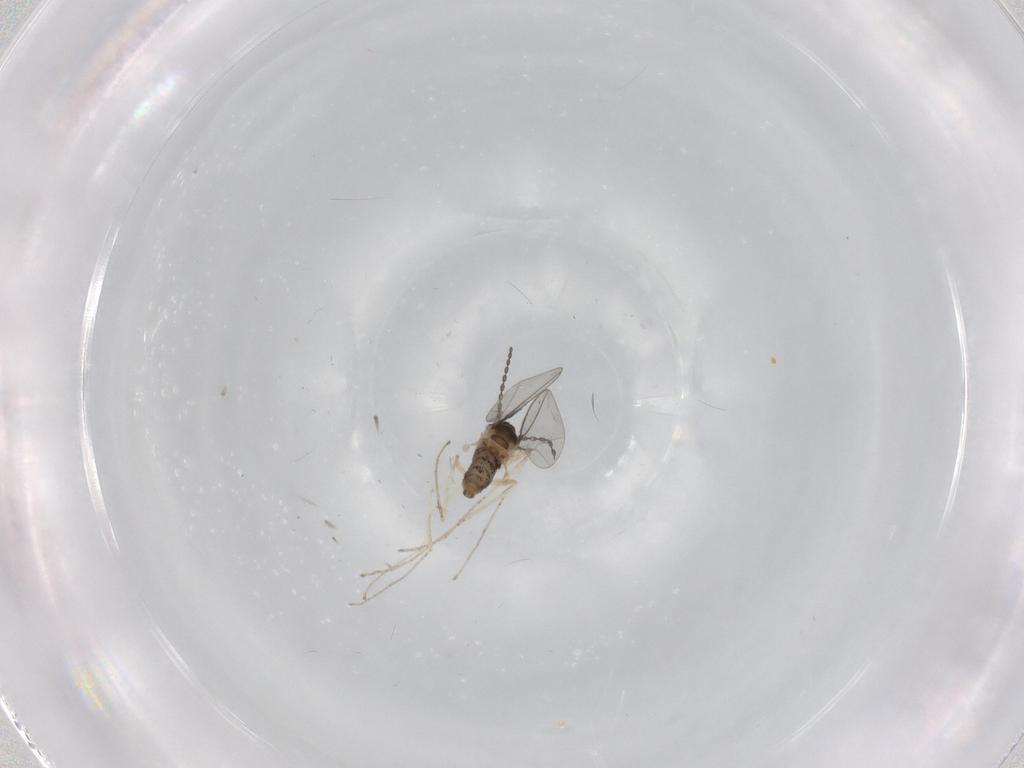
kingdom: Animalia
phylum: Arthropoda
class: Insecta
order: Diptera
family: Cecidomyiidae
